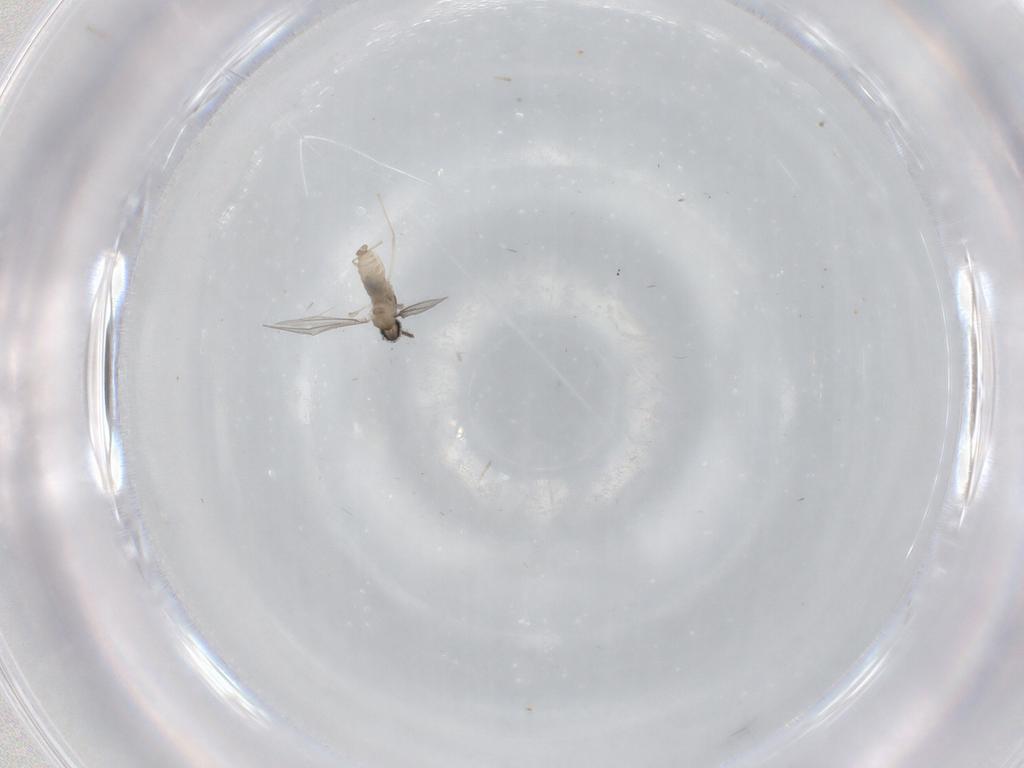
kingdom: Animalia
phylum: Arthropoda
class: Insecta
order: Diptera
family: Cecidomyiidae
